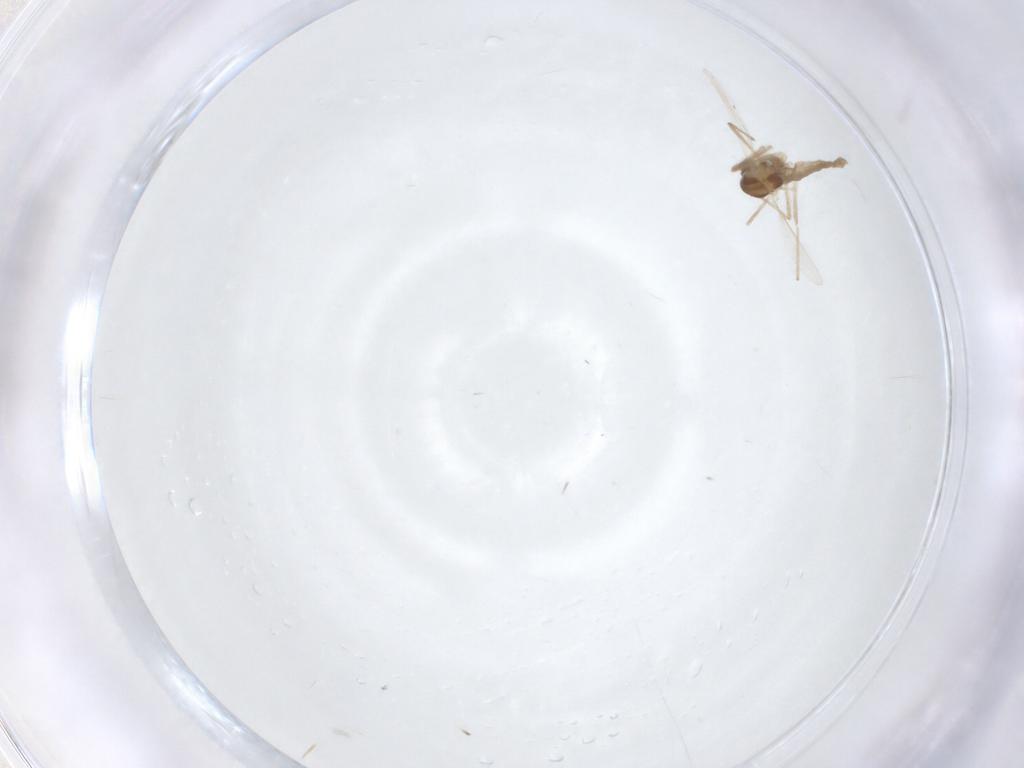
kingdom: Animalia
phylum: Arthropoda
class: Insecta
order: Diptera
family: Chironomidae
